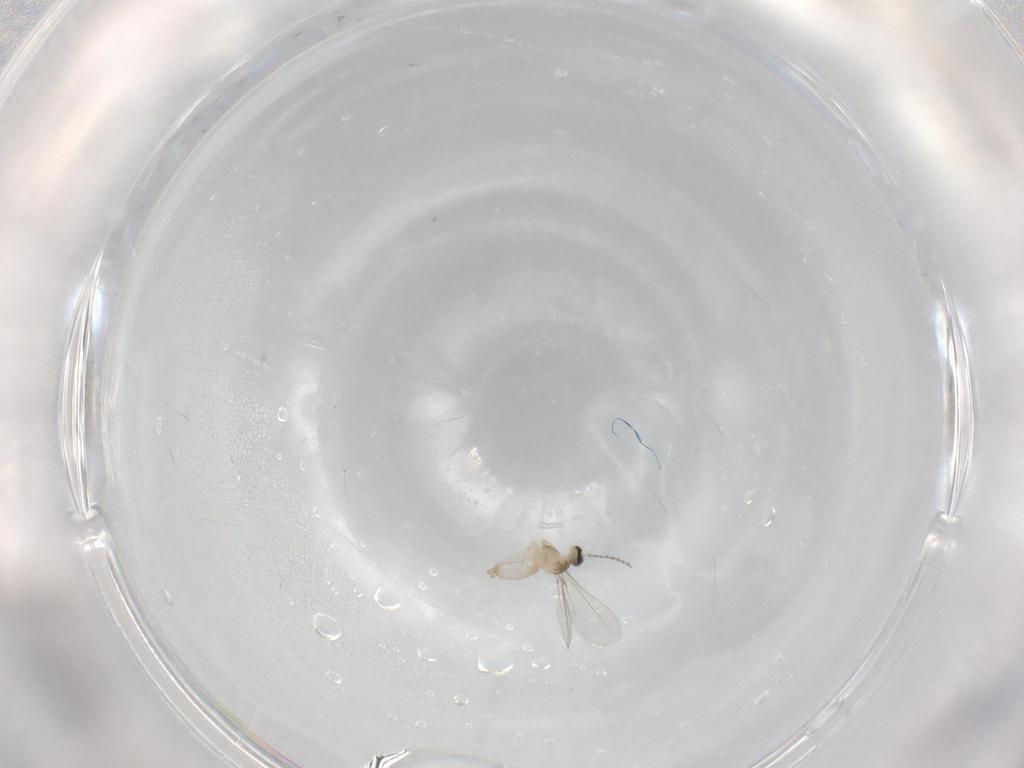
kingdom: Animalia
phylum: Arthropoda
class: Insecta
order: Diptera
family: Cecidomyiidae
